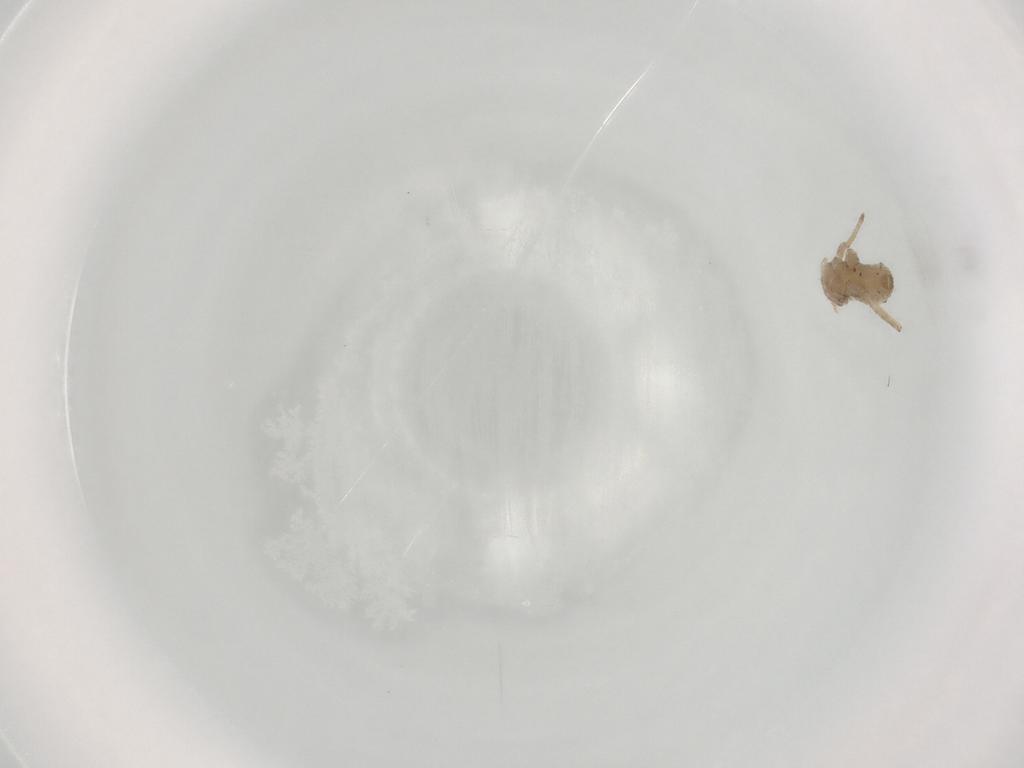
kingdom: Animalia
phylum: Arthropoda
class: Insecta
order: Hemiptera
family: Aphididae
